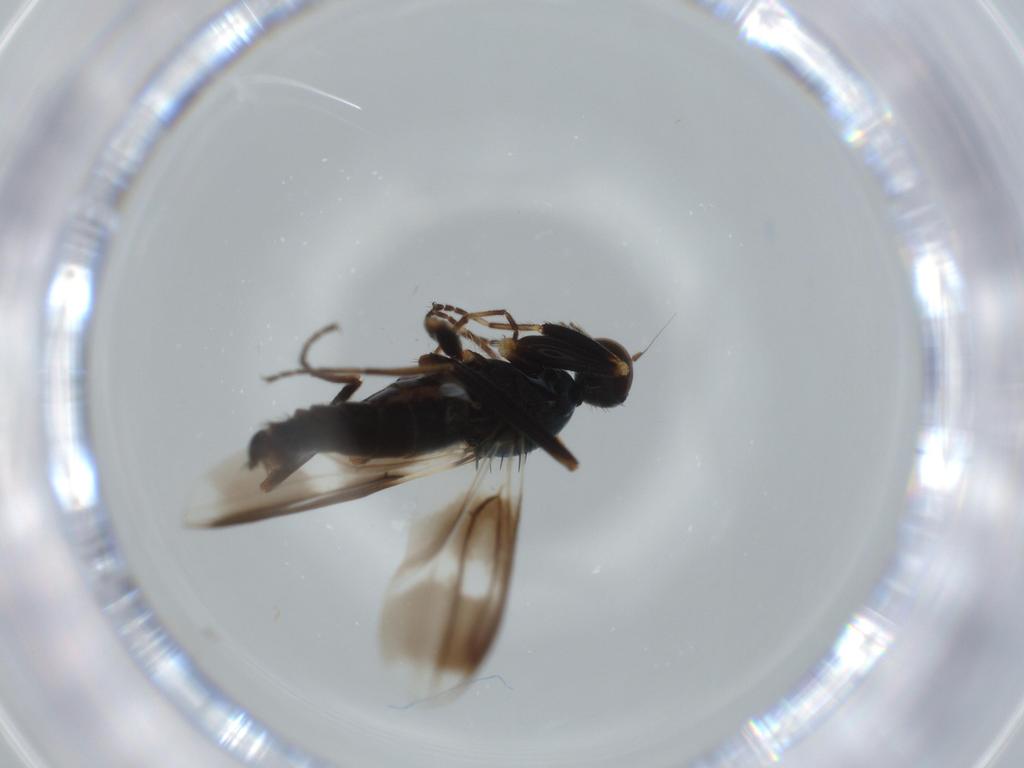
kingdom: Animalia
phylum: Arthropoda
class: Insecta
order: Diptera
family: Hybotidae
